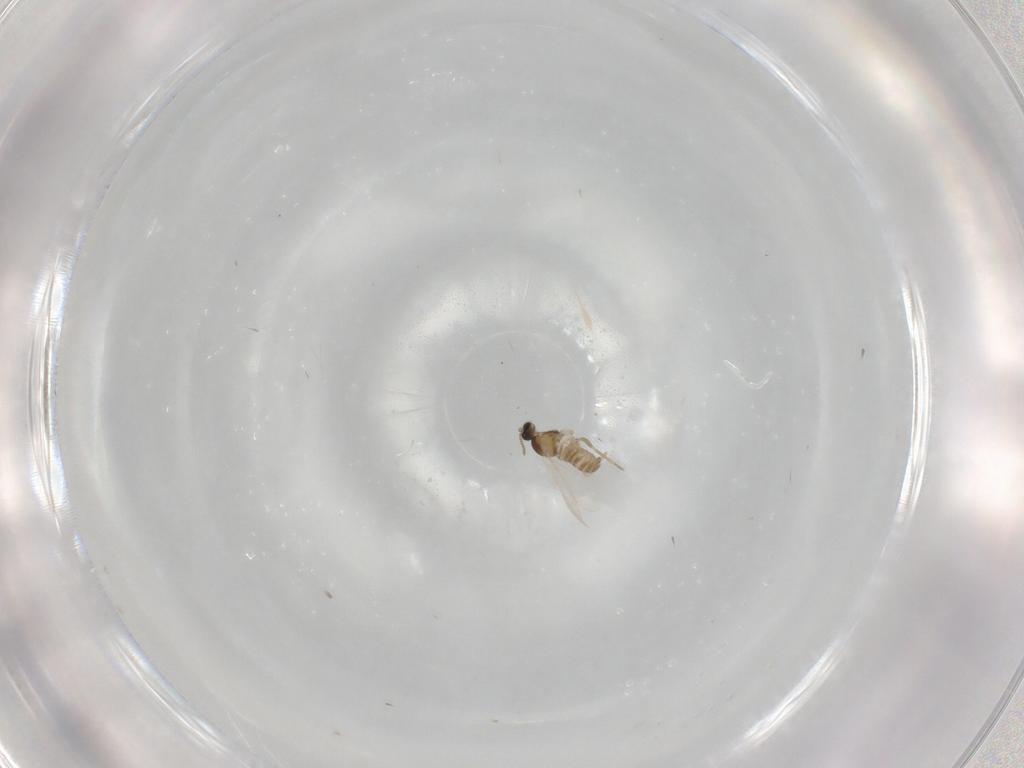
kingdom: Animalia
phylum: Arthropoda
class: Insecta
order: Diptera
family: Cecidomyiidae
